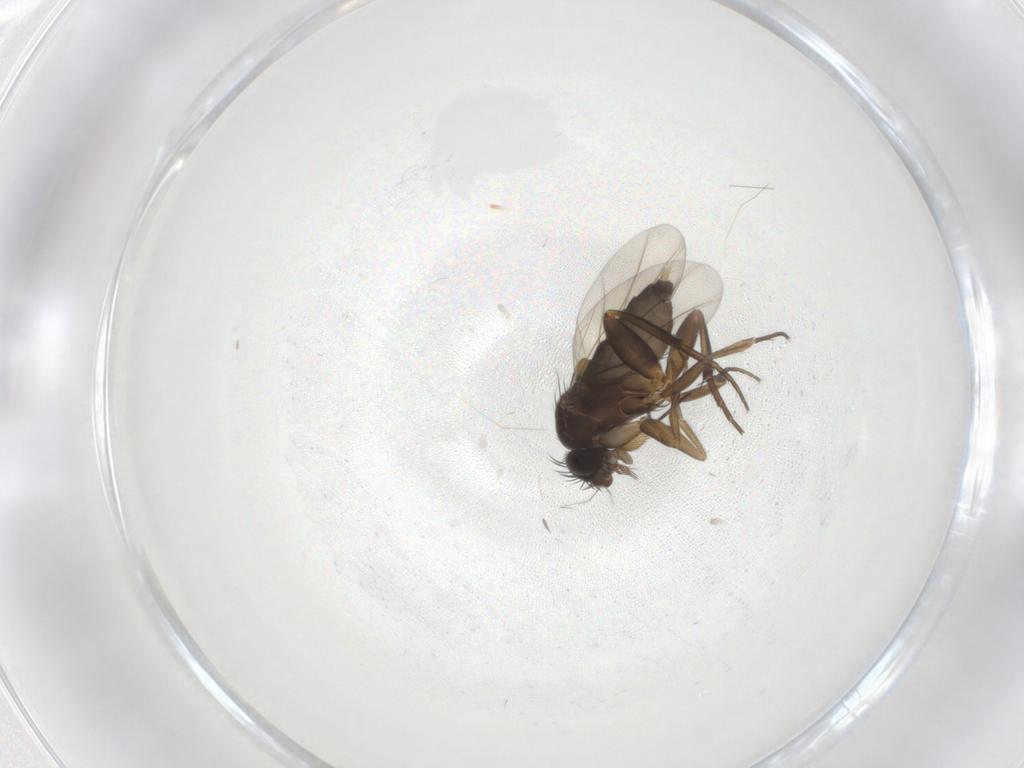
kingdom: Animalia
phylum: Arthropoda
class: Insecta
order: Diptera
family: Phoridae
